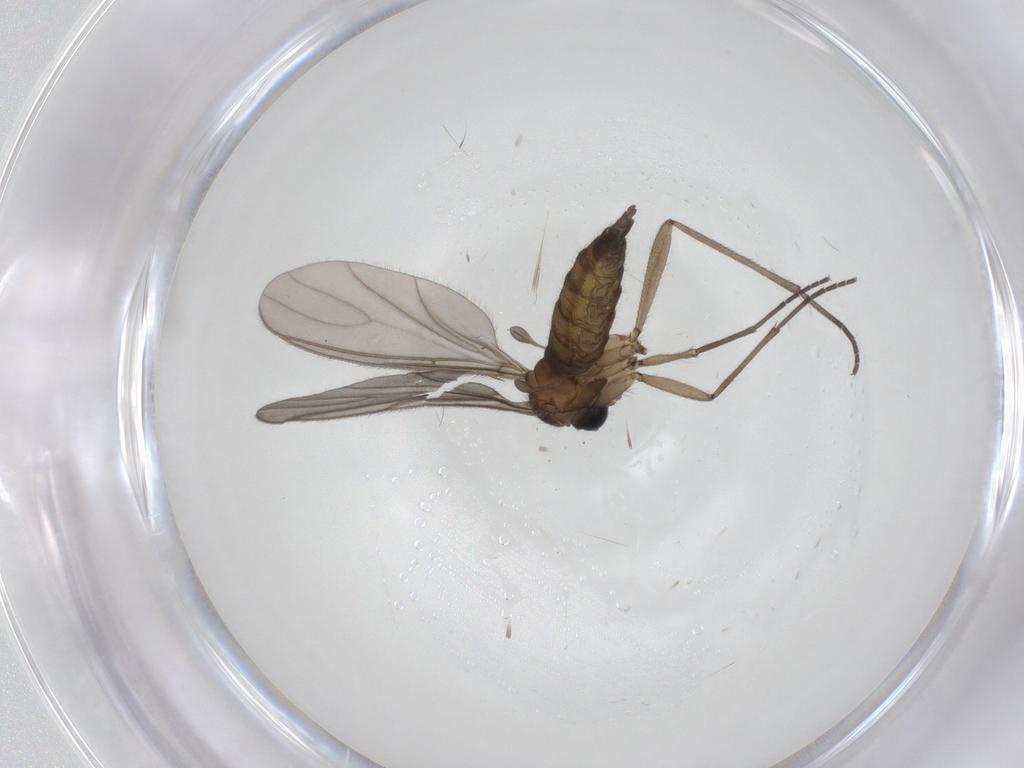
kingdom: Animalia
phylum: Arthropoda
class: Insecta
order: Diptera
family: Sciaridae
